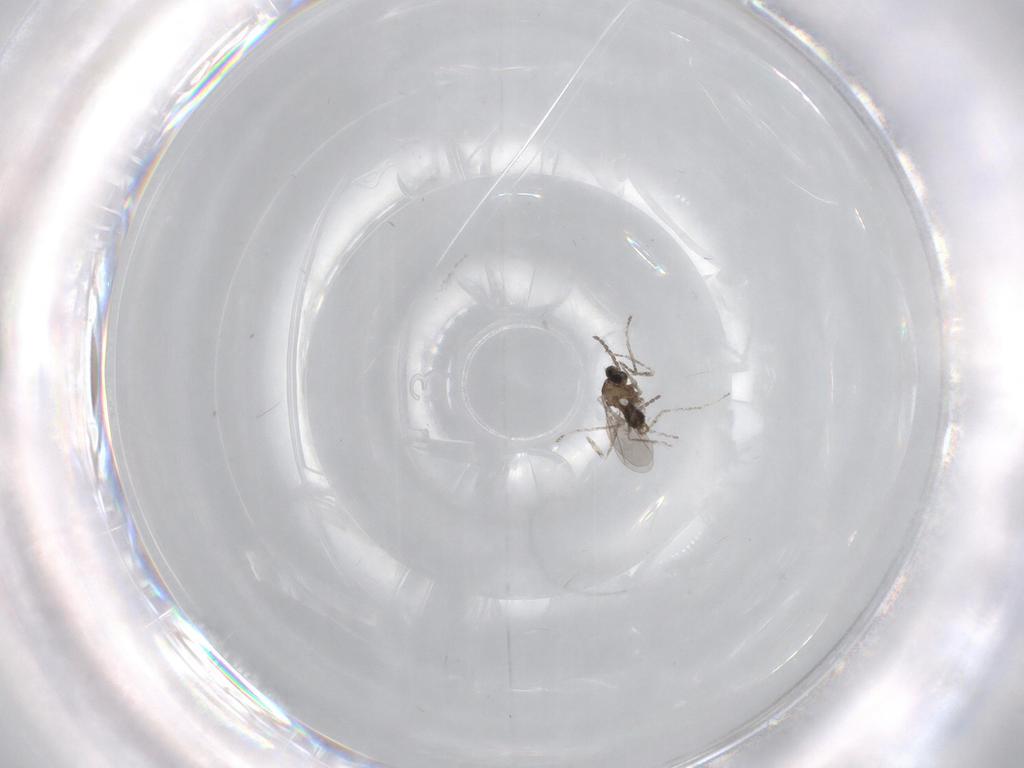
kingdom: Animalia
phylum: Arthropoda
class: Insecta
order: Diptera
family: Cecidomyiidae
